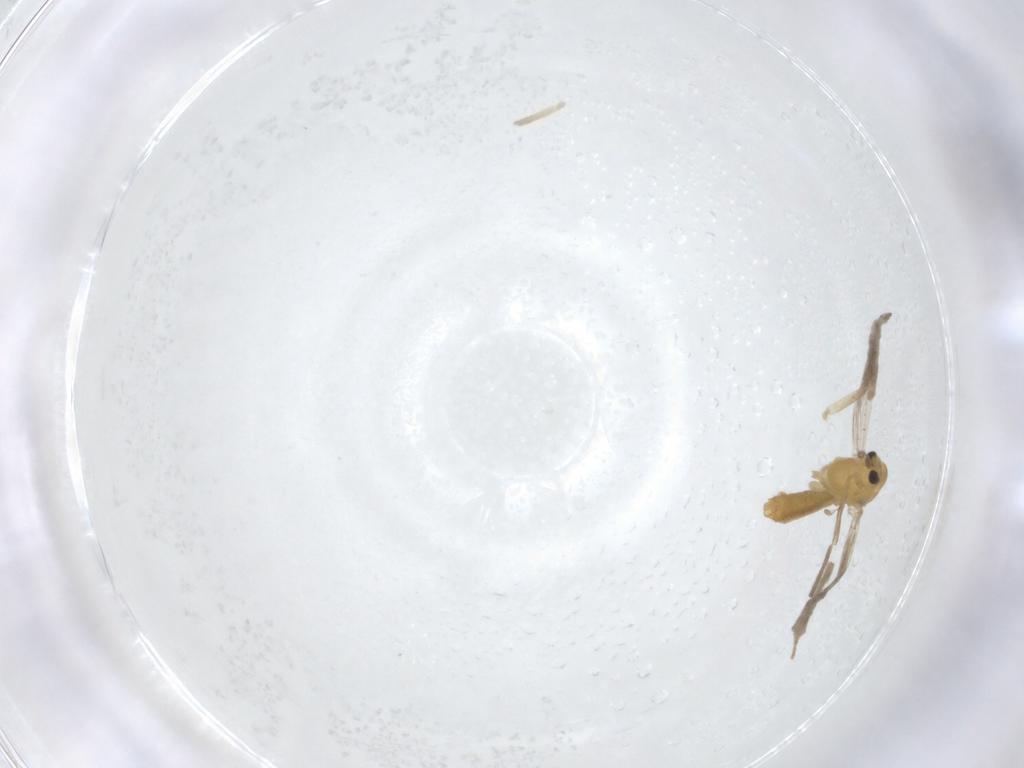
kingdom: Animalia
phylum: Arthropoda
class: Insecta
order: Diptera
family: Chironomidae
